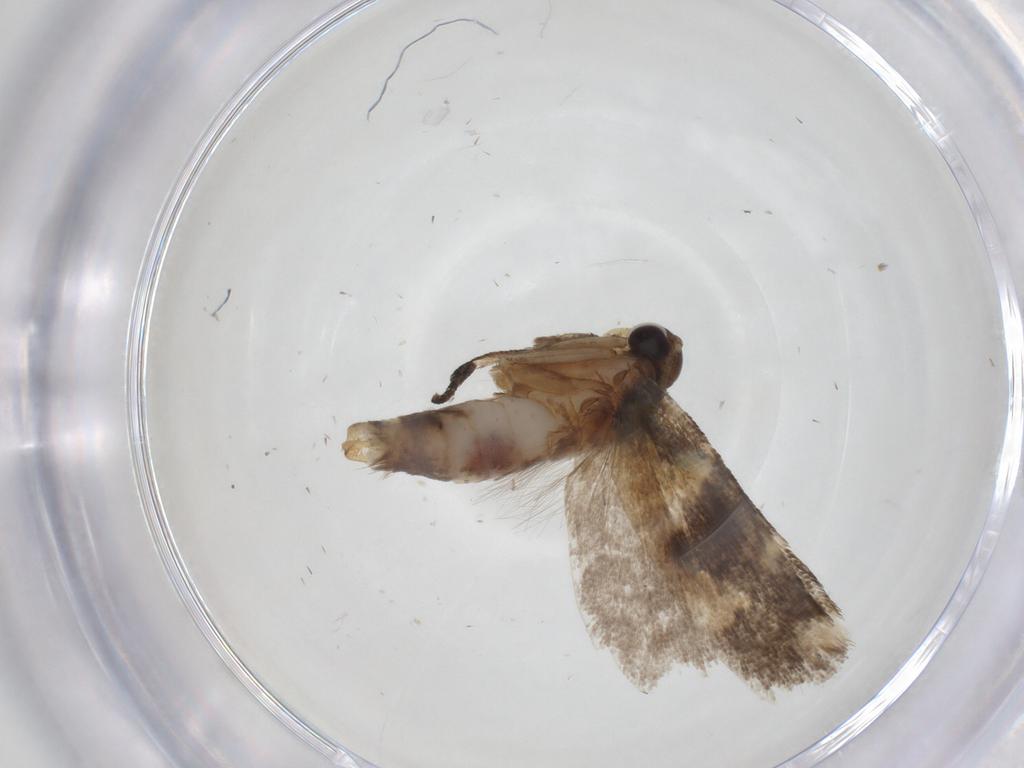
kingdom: Animalia
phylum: Arthropoda
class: Insecta
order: Lepidoptera
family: Gelechiidae
